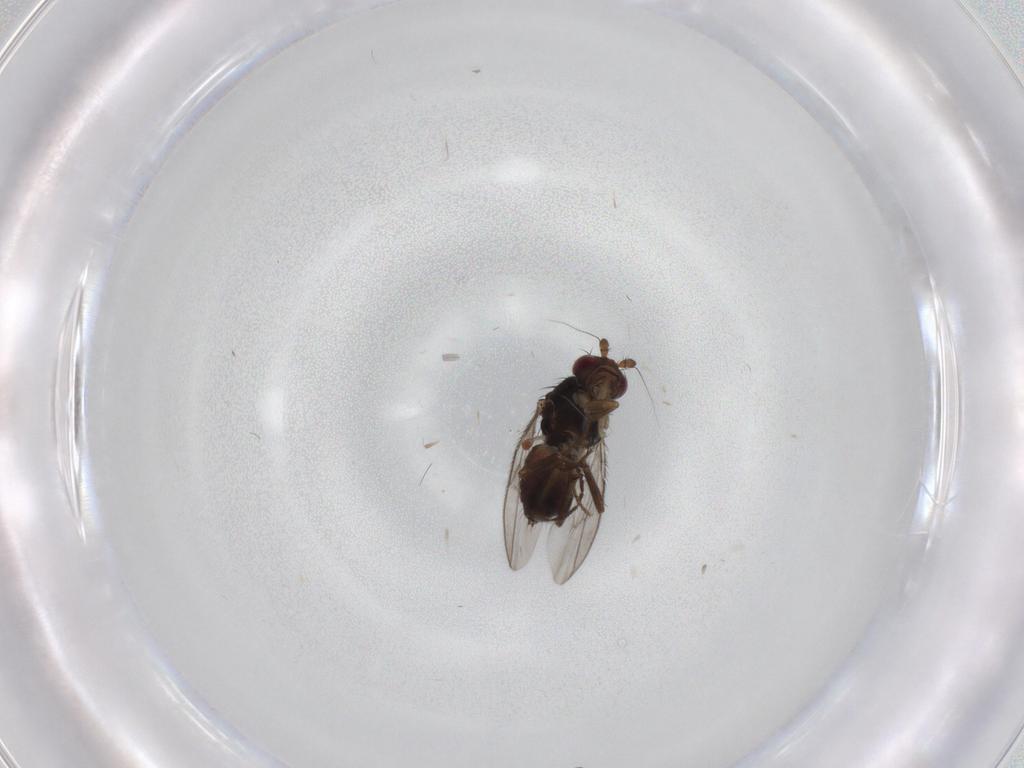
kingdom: Animalia
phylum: Arthropoda
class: Insecta
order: Diptera
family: Sphaeroceridae
